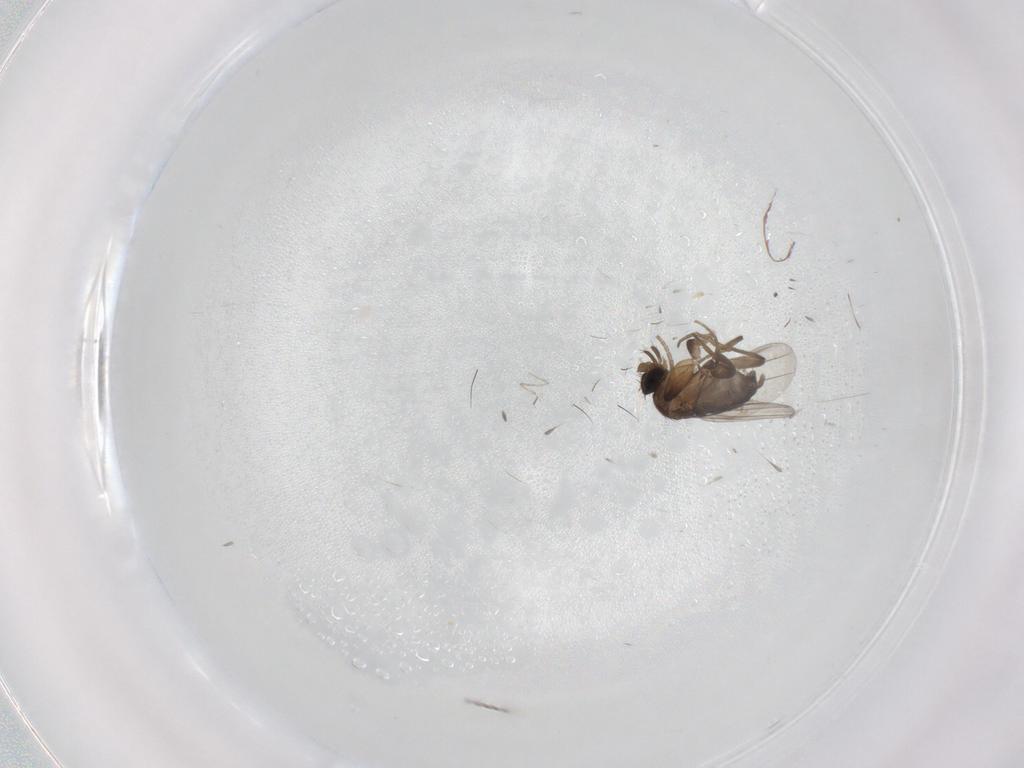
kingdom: Animalia
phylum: Arthropoda
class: Insecta
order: Diptera
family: Phoridae
